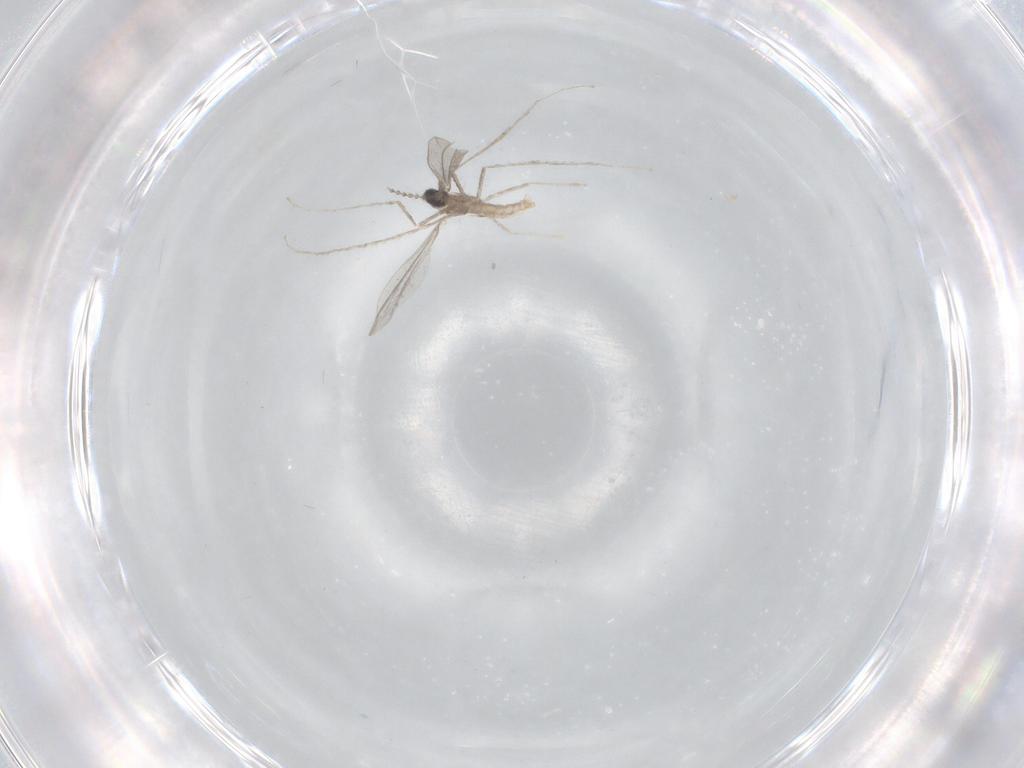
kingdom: Animalia
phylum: Arthropoda
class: Insecta
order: Diptera
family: Cecidomyiidae
